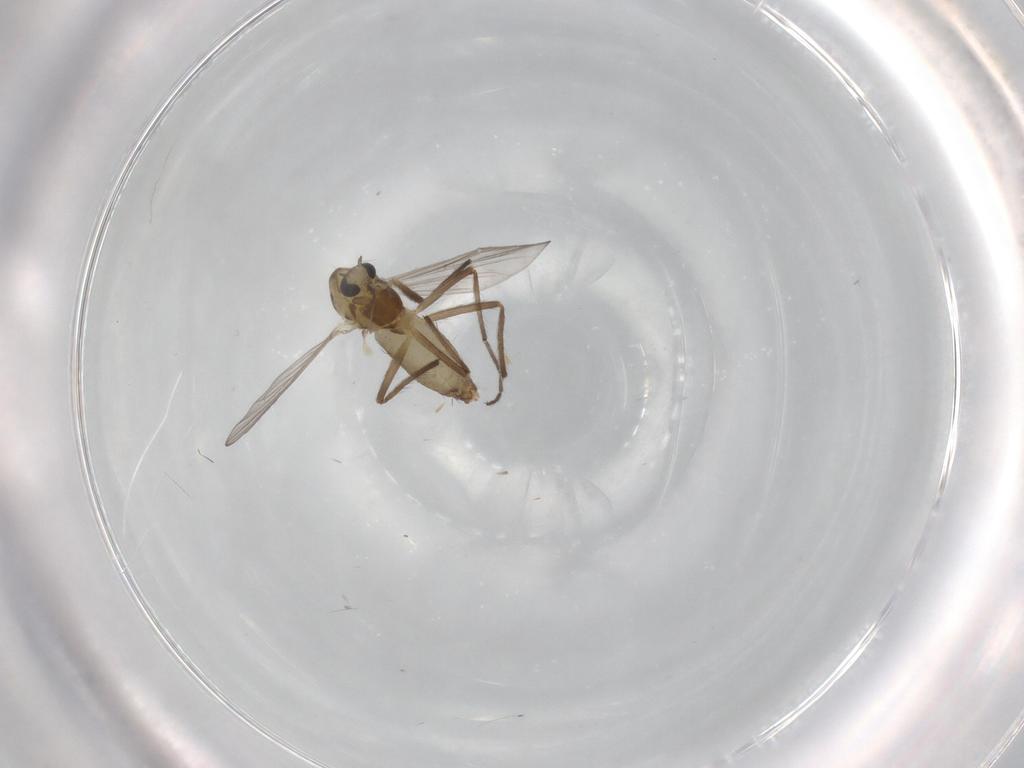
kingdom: Animalia
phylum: Arthropoda
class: Insecta
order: Diptera
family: Chironomidae
